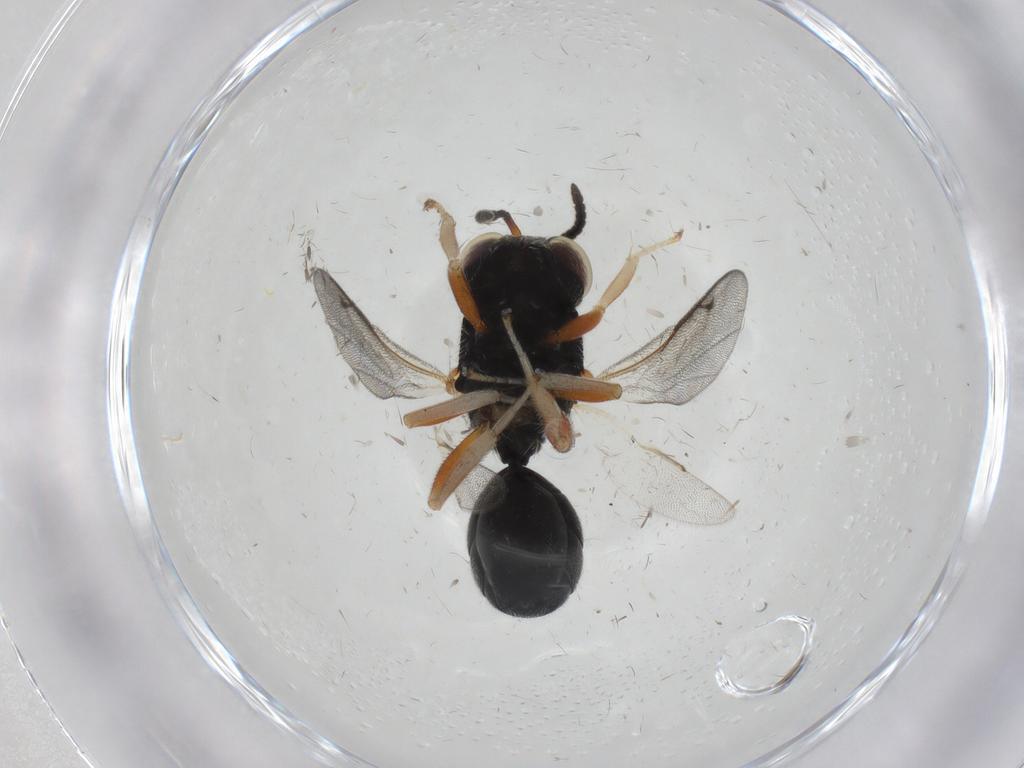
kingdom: Animalia
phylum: Arthropoda
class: Insecta
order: Hymenoptera
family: Eurytomidae
